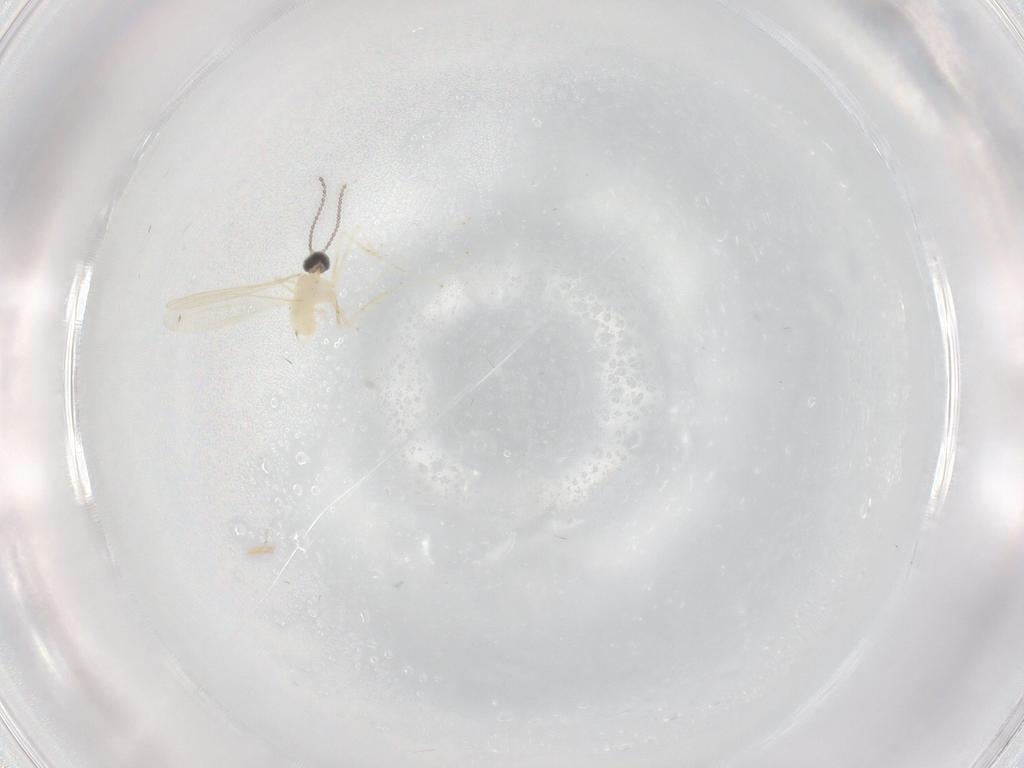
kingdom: Animalia
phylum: Arthropoda
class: Insecta
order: Diptera
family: Cecidomyiidae
